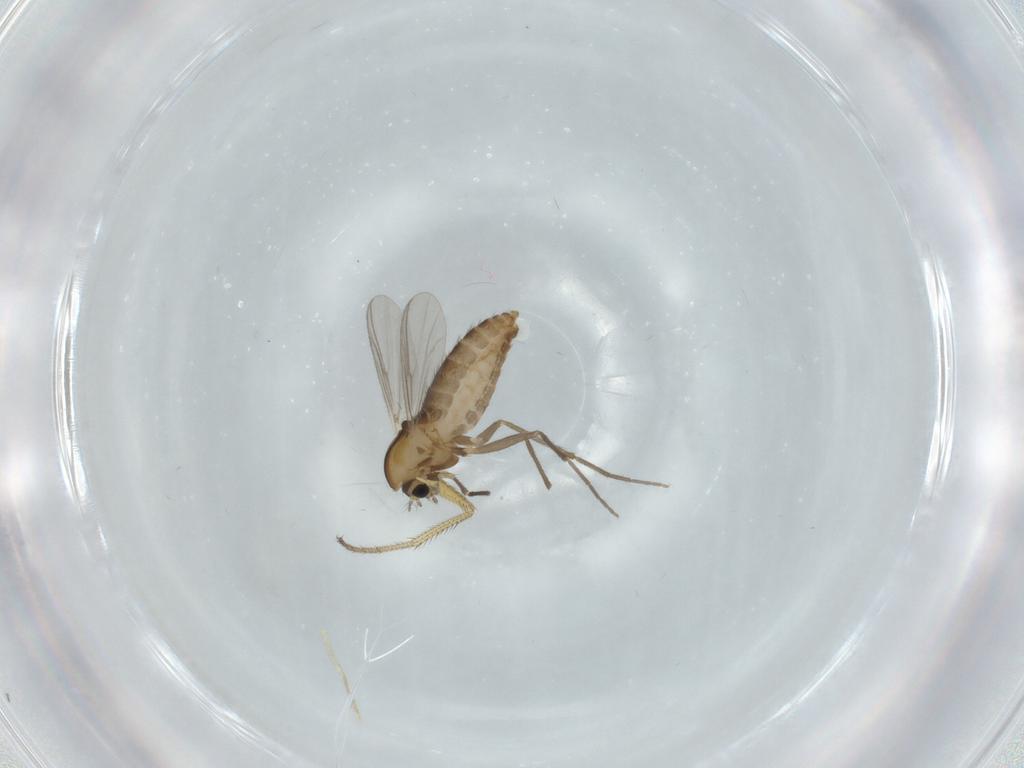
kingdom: Animalia
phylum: Arthropoda
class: Insecta
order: Diptera
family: Chironomidae
